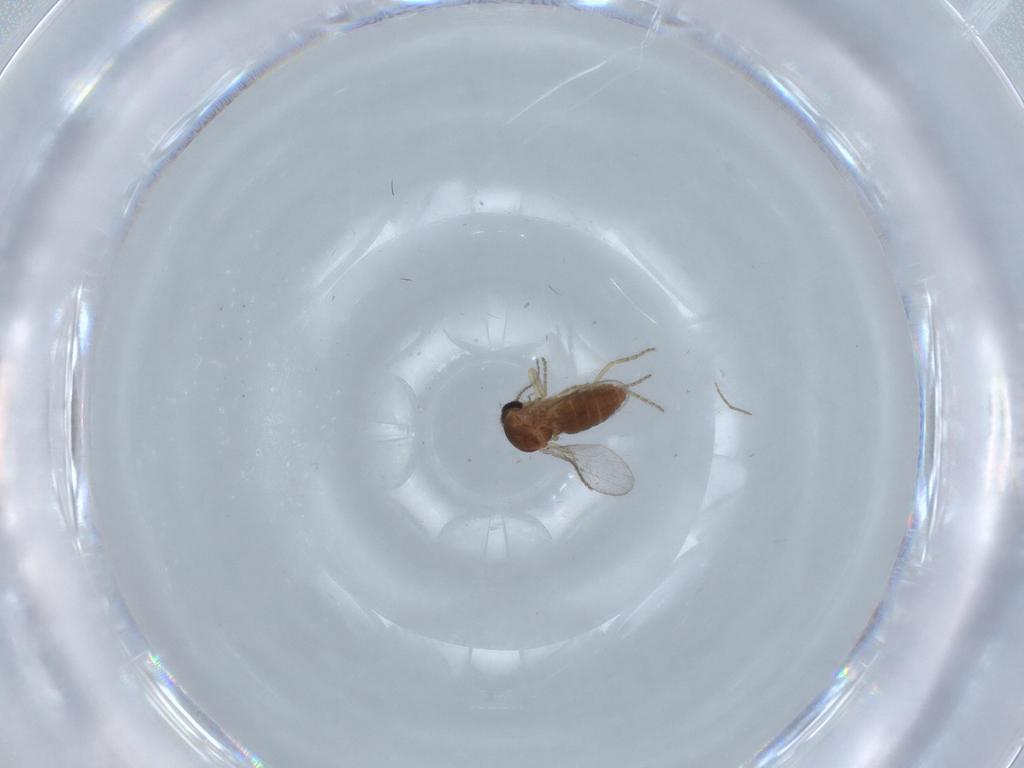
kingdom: Animalia
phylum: Arthropoda
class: Insecta
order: Diptera
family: Ceratopogonidae
